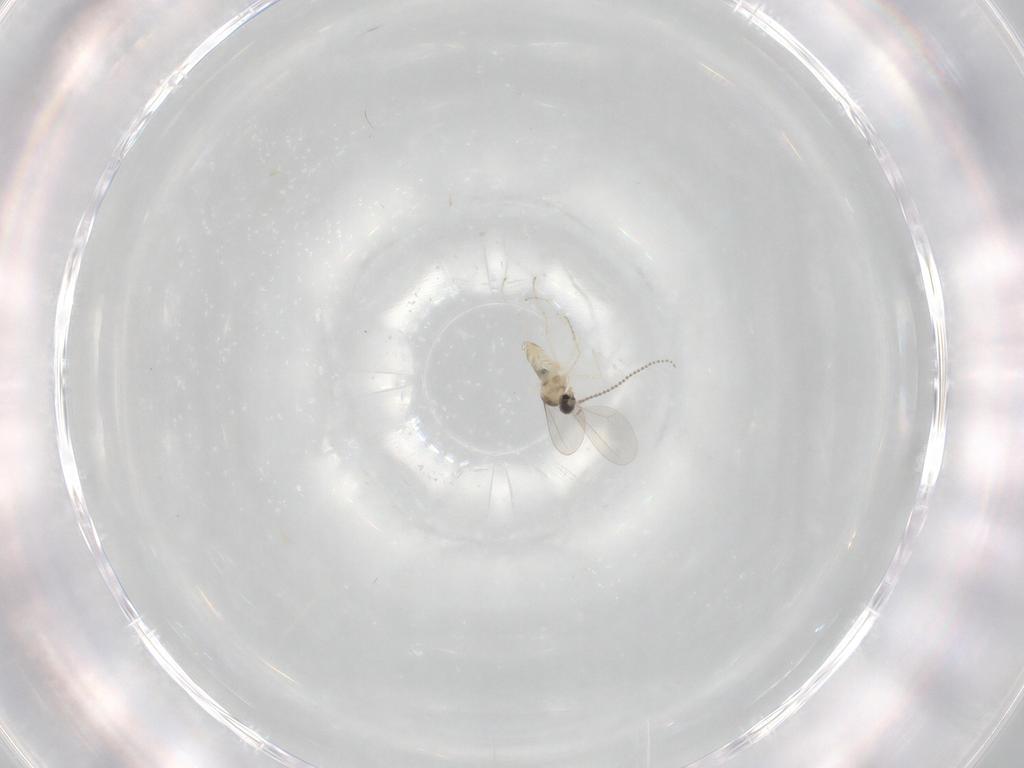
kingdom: Animalia
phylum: Arthropoda
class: Insecta
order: Diptera
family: Cecidomyiidae
